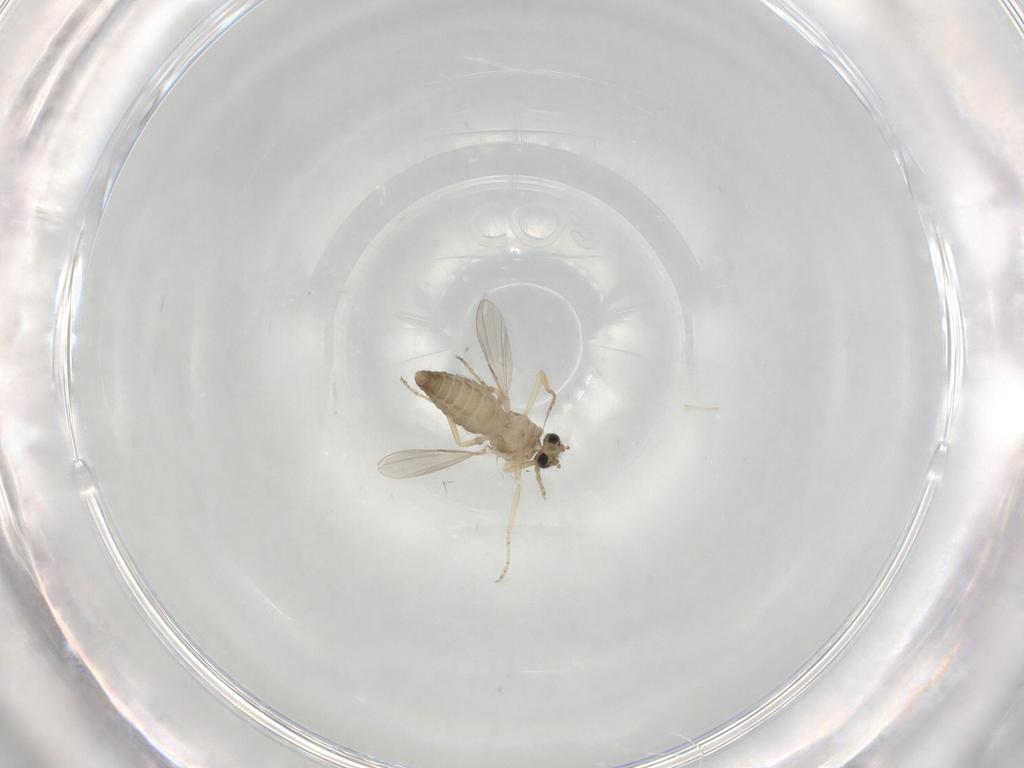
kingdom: Animalia
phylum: Arthropoda
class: Insecta
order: Diptera
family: Ceratopogonidae
